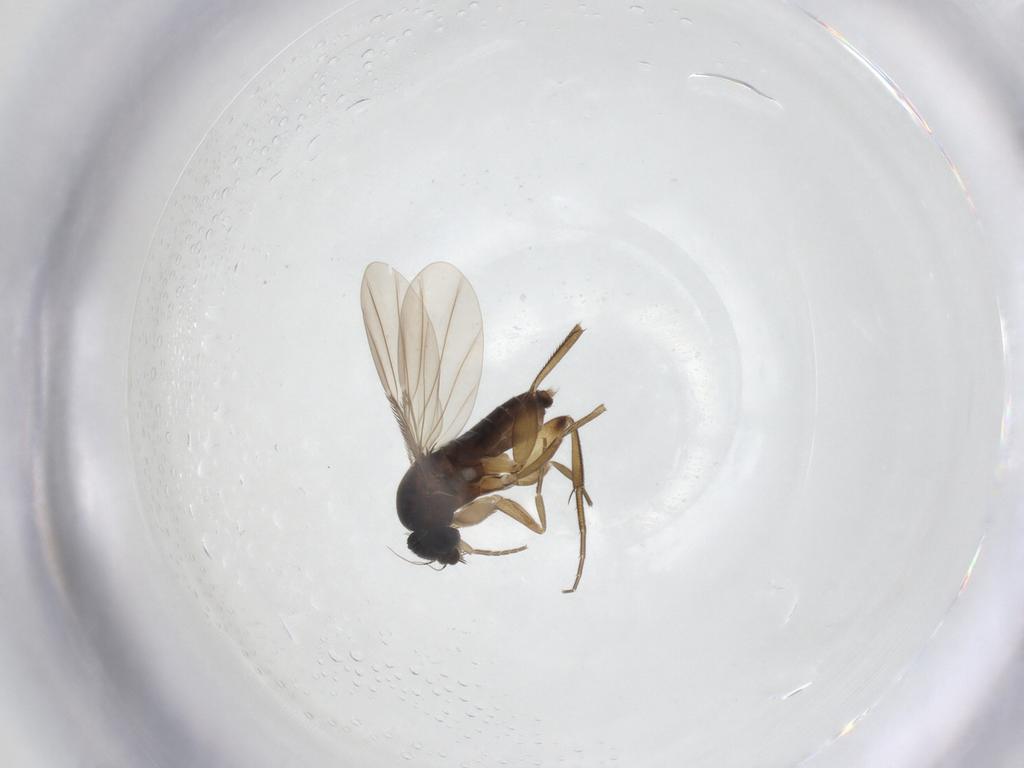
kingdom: Animalia
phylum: Arthropoda
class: Insecta
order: Diptera
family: Phoridae
